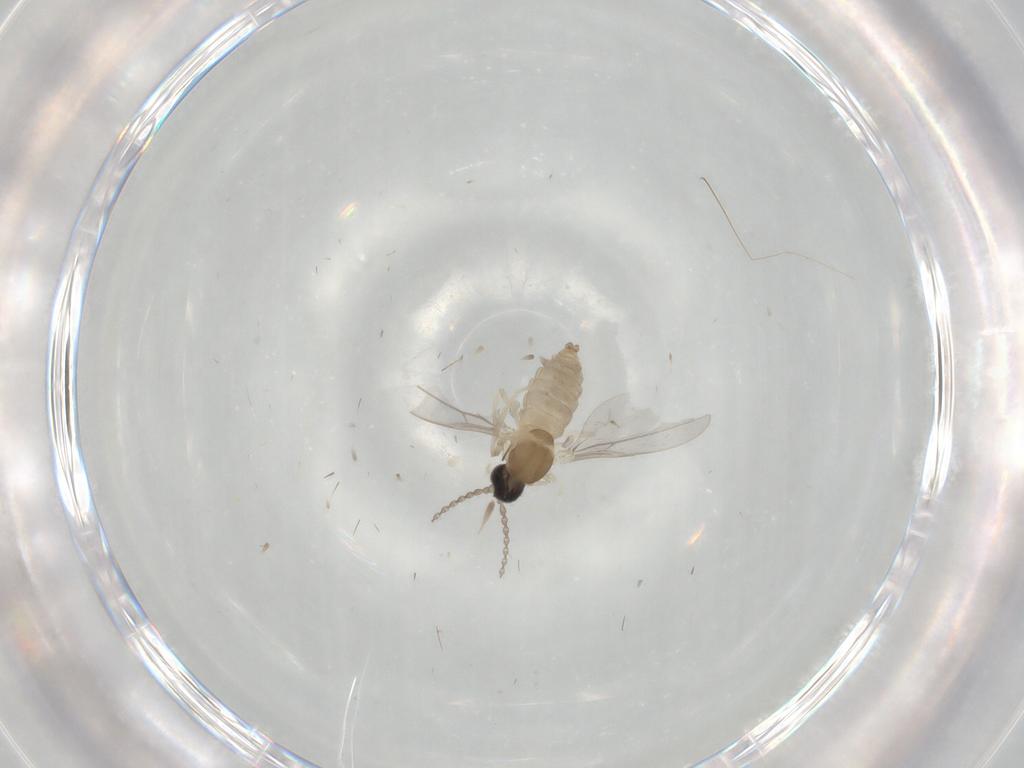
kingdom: Animalia
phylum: Arthropoda
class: Insecta
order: Diptera
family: Cecidomyiidae
